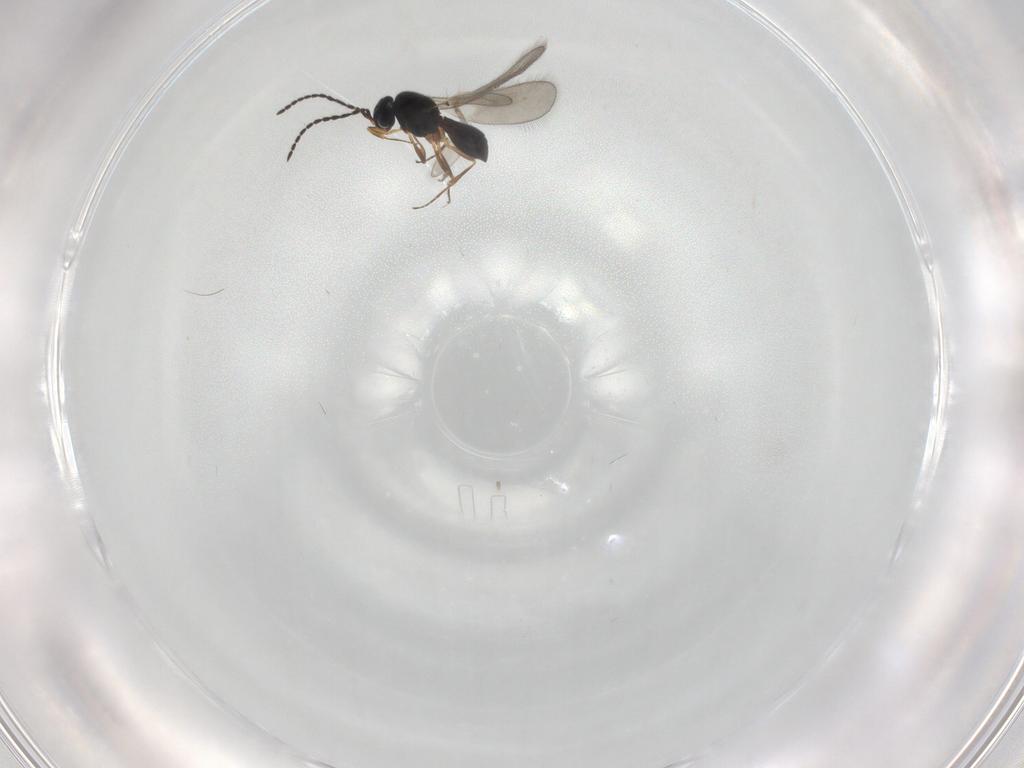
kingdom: Animalia
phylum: Arthropoda
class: Insecta
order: Hymenoptera
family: Scelionidae
